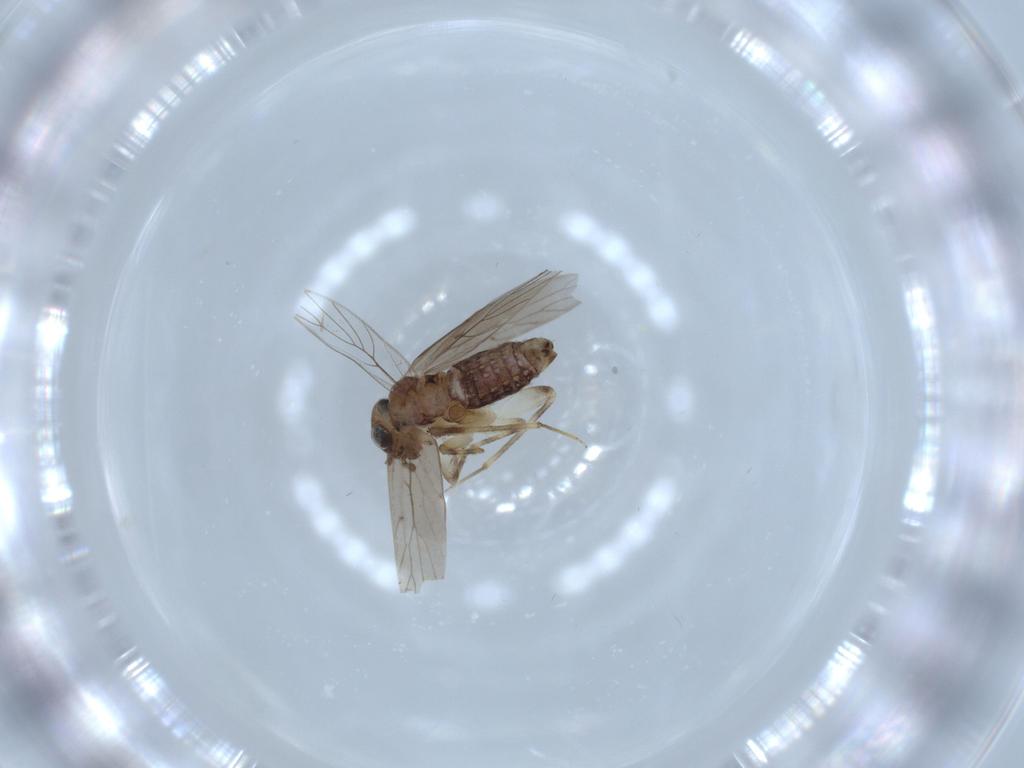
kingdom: Animalia
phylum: Arthropoda
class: Insecta
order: Psocodea
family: Lepidopsocidae
